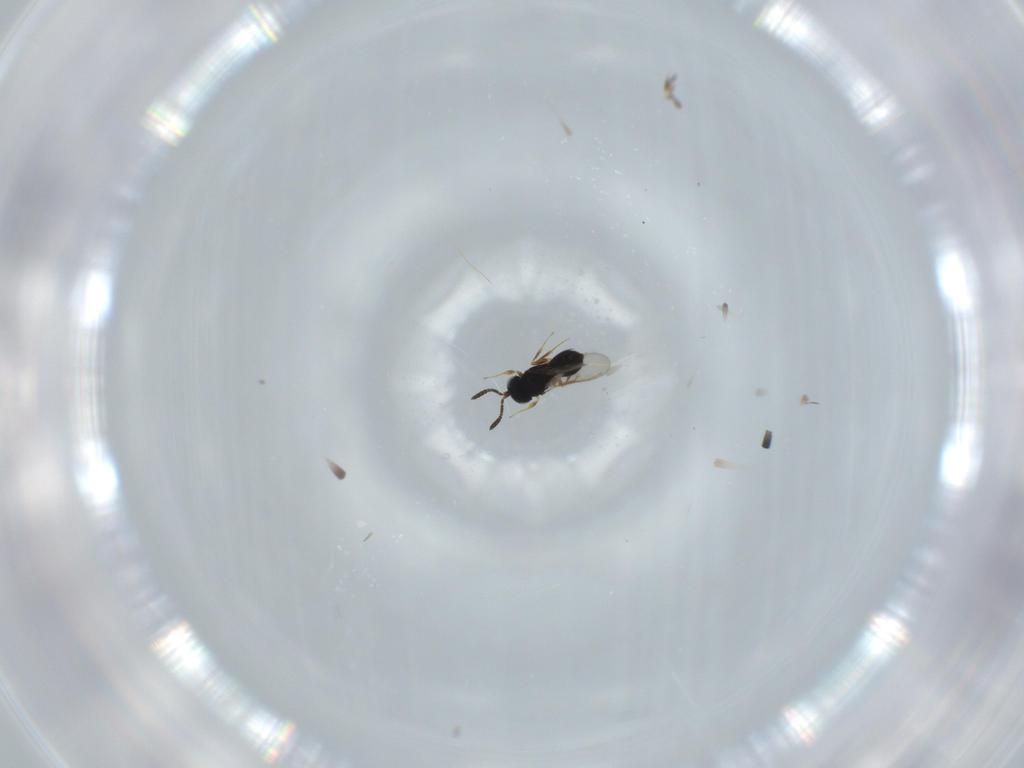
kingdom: Animalia
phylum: Arthropoda
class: Insecta
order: Hymenoptera
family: Scelionidae
